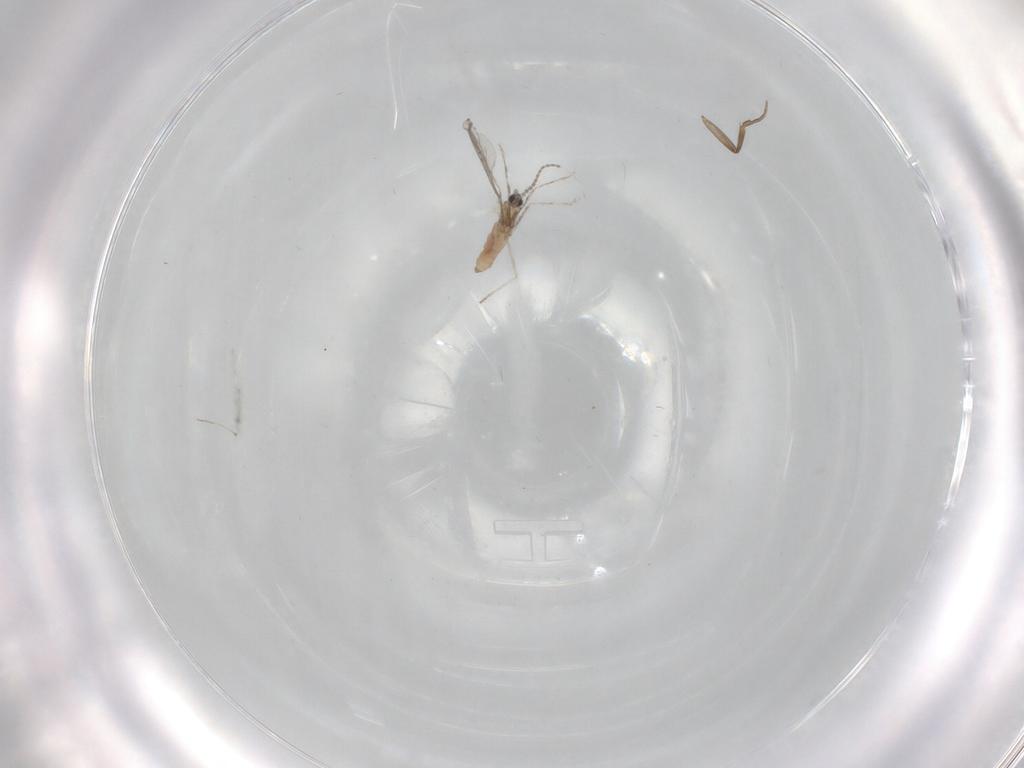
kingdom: Animalia
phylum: Arthropoda
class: Insecta
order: Diptera
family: Phoridae
